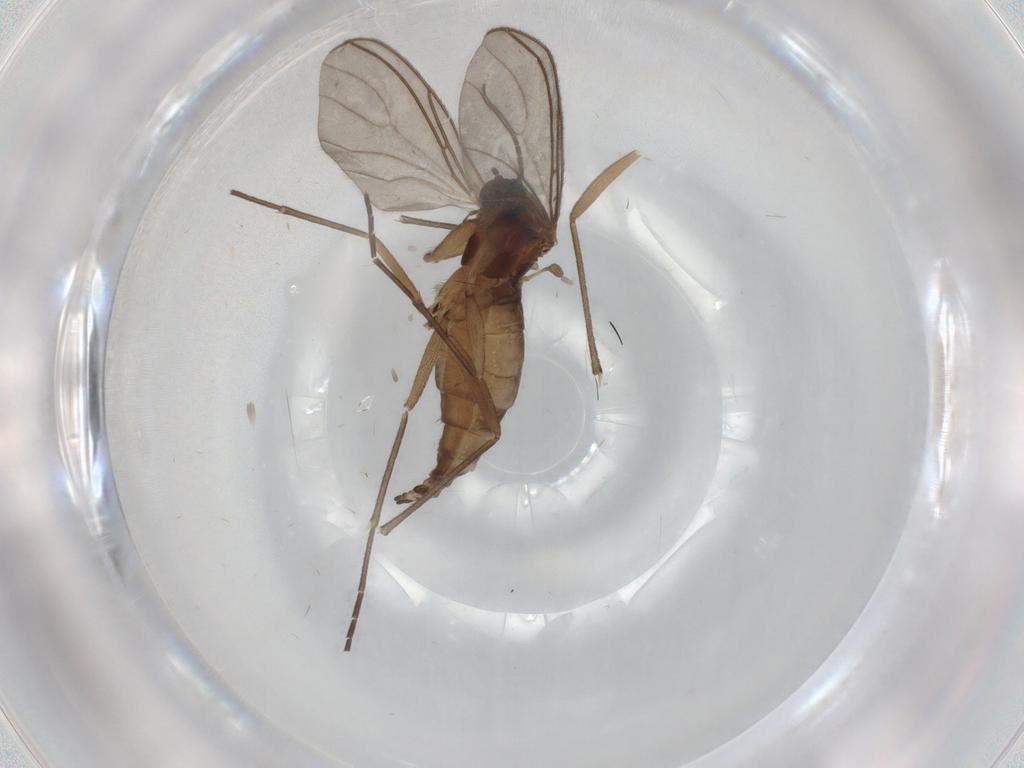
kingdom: Animalia
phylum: Arthropoda
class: Insecta
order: Diptera
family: Sciaridae
